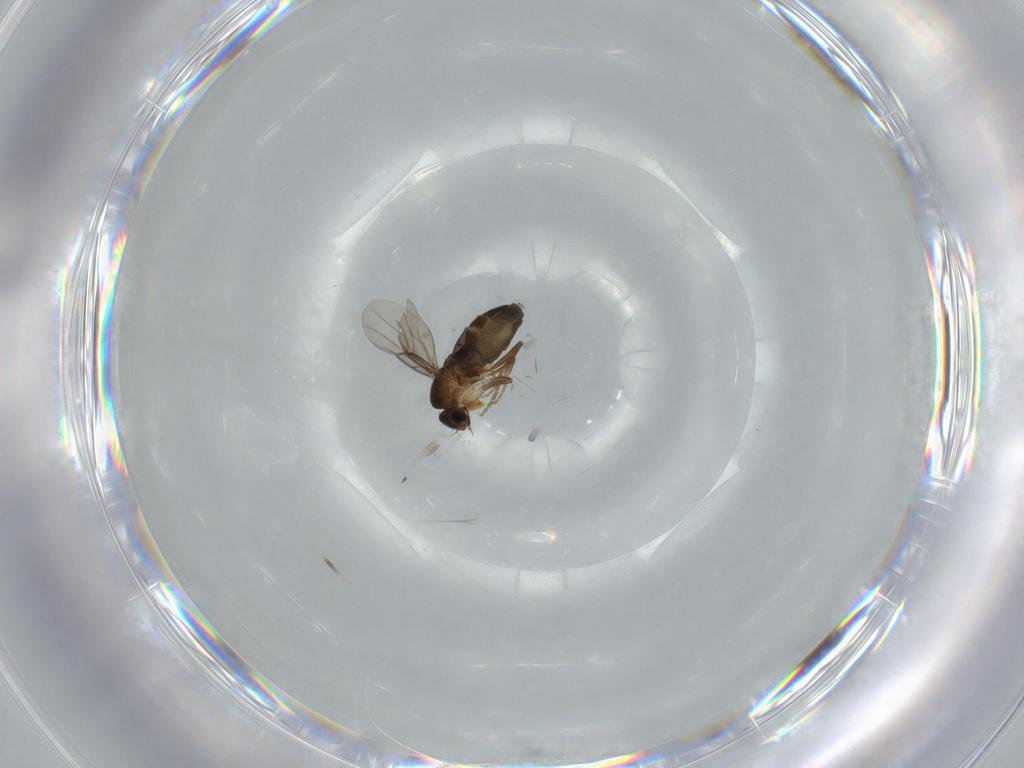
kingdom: Animalia
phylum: Arthropoda
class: Insecta
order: Diptera
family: Phoridae
